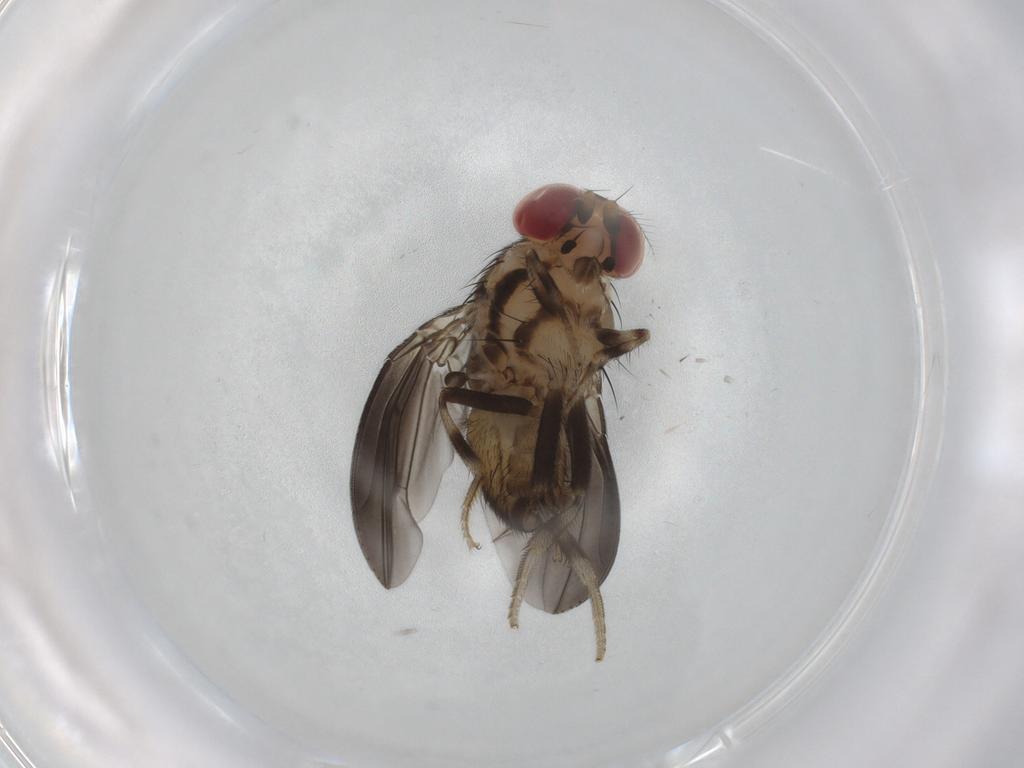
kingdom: Animalia
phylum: Arthropoda
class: Insecta
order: Diptera
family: Drosophilidae
